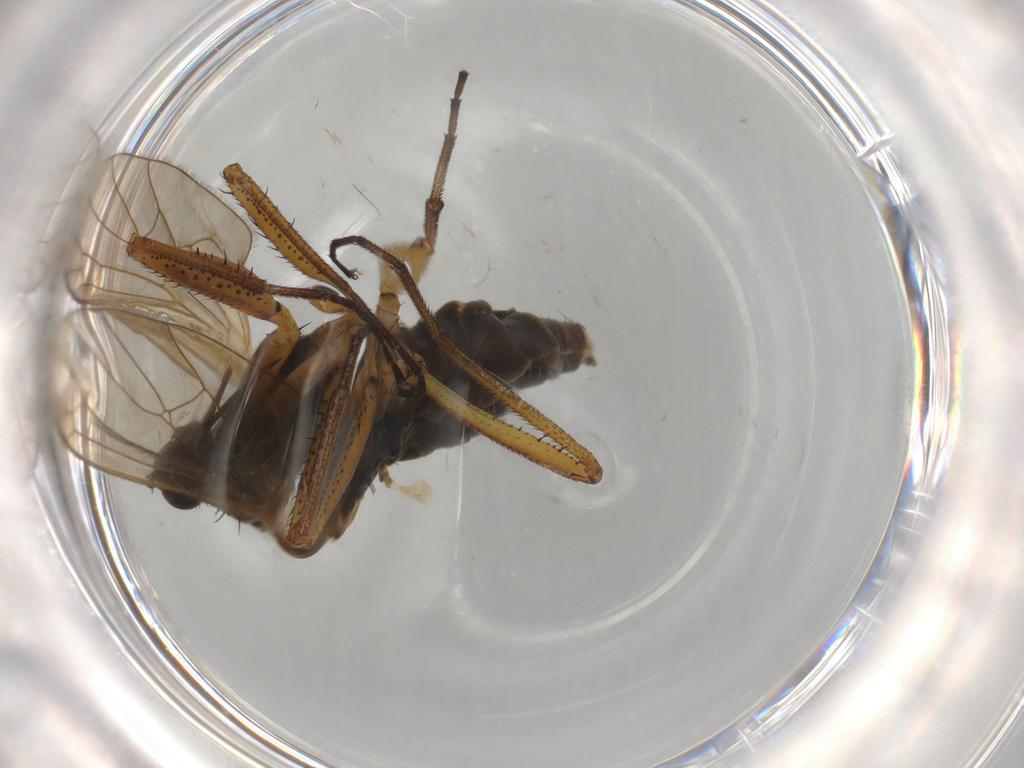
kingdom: Animalia
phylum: Arthropoda
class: Insecta
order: Diptera
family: Empididae
